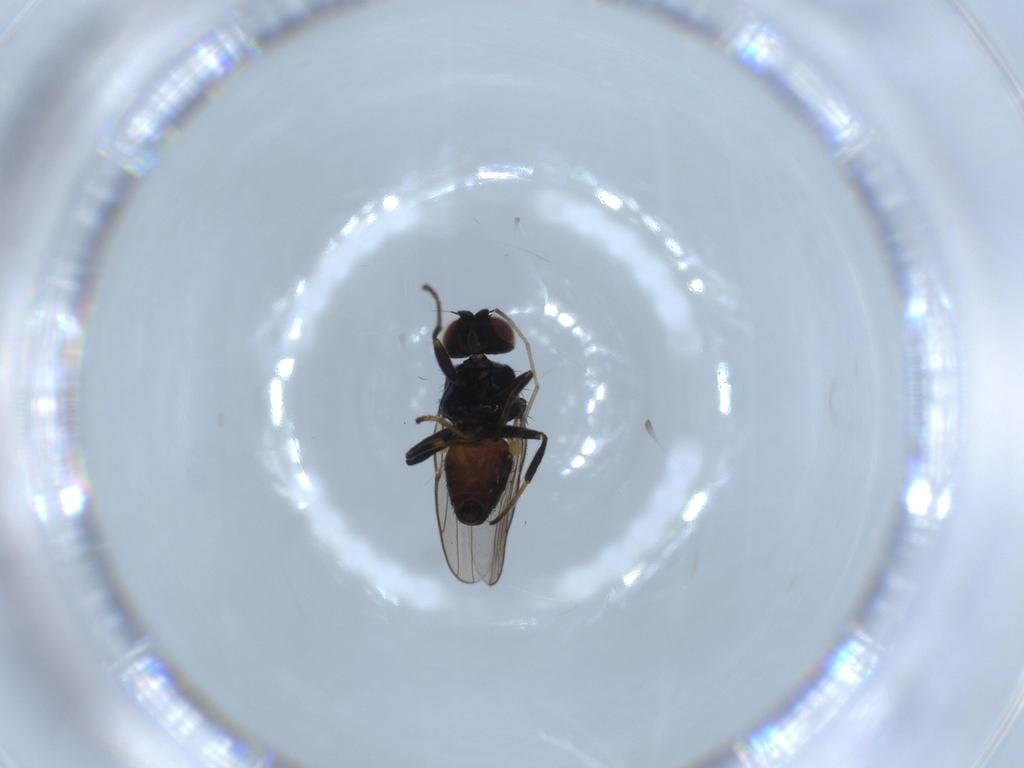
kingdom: Animalia
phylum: Arthropoda
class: Insecta
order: Diptera
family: Chloropidae
